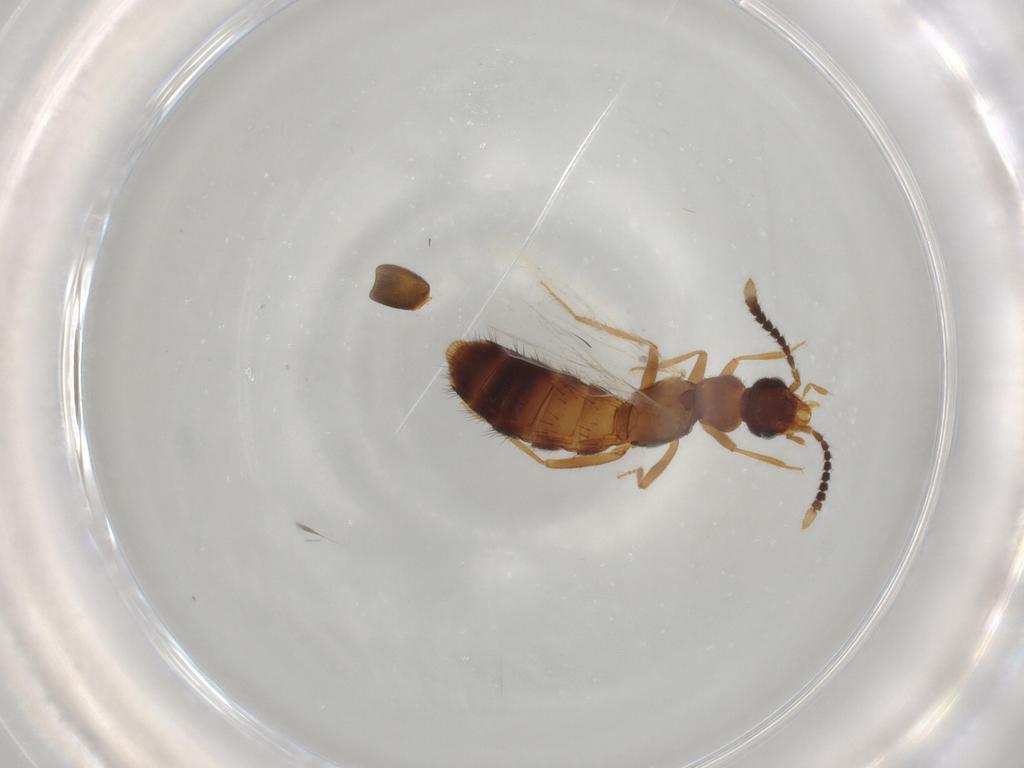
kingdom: Animalia
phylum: Arthropoda
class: Insecta
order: Coleoptera
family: Staphylinidae
